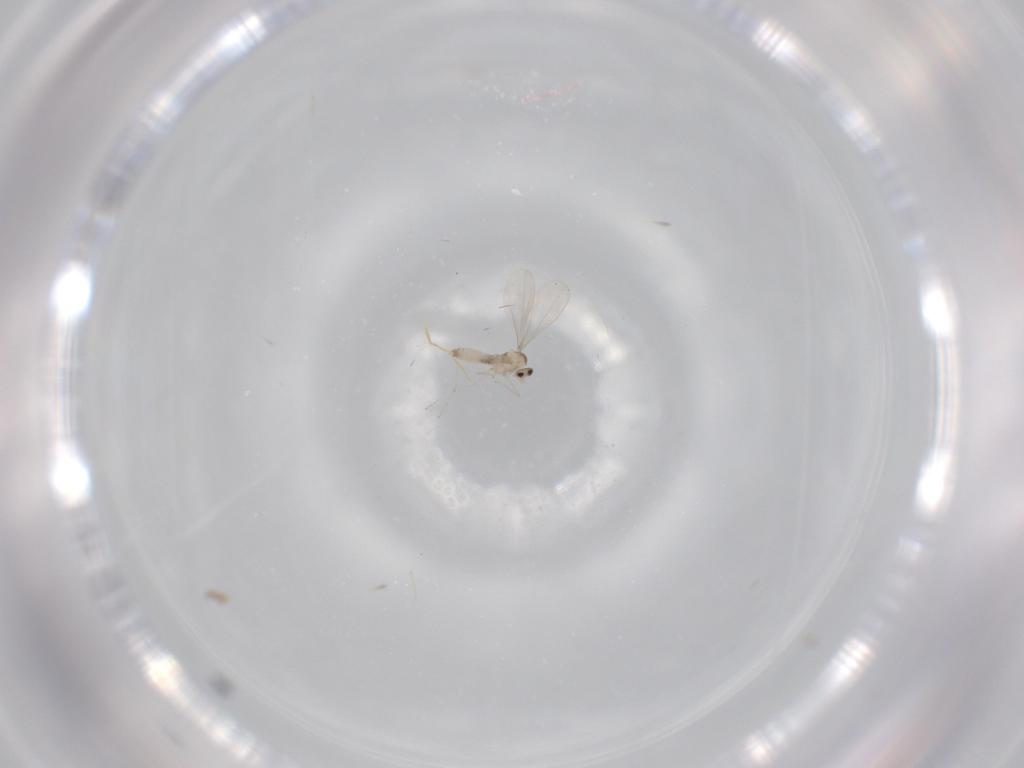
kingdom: Animalia
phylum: Arthropoda
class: Insecta
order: Diptera
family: Cecidomyiidae
